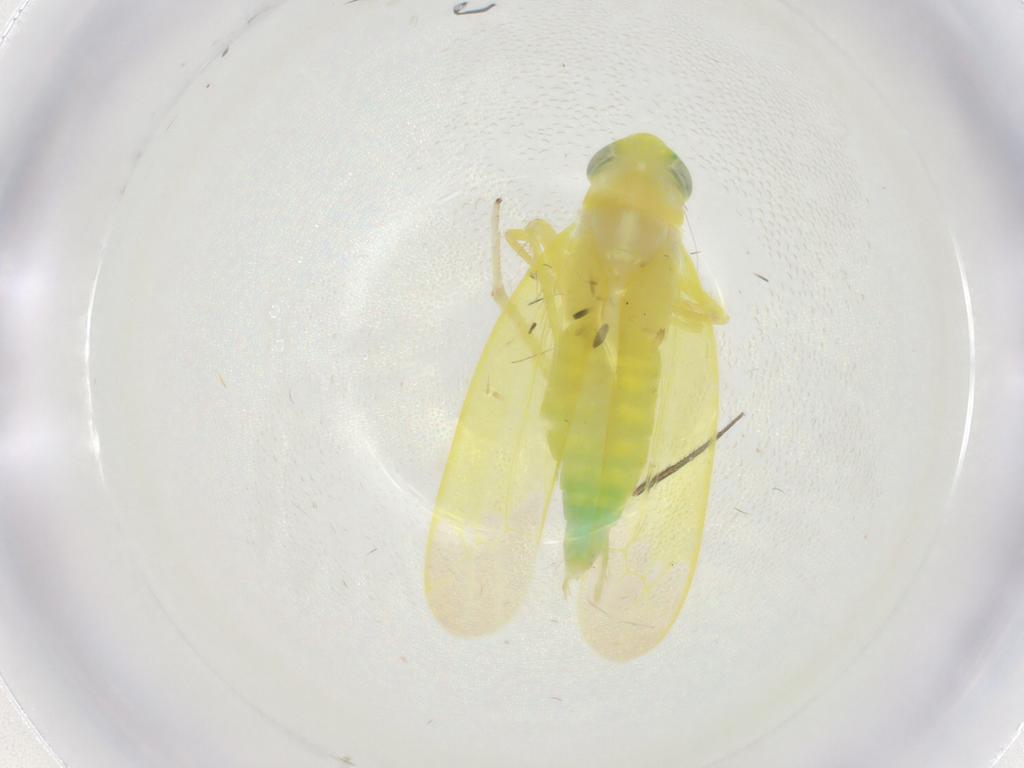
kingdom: Animalia
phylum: Arthropoda
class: Insecta
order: Hemiptera
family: Cicadellidae
